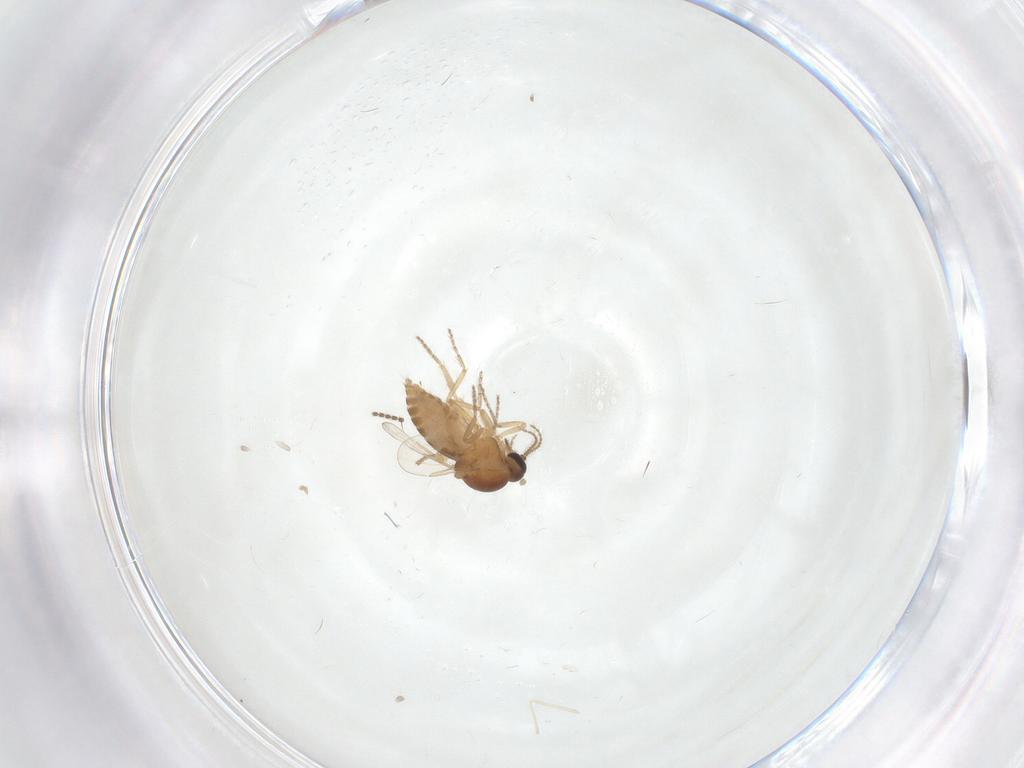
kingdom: Animalia
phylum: Arthropoda
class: Insecta
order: Diptera
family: Ceratopogonidae
